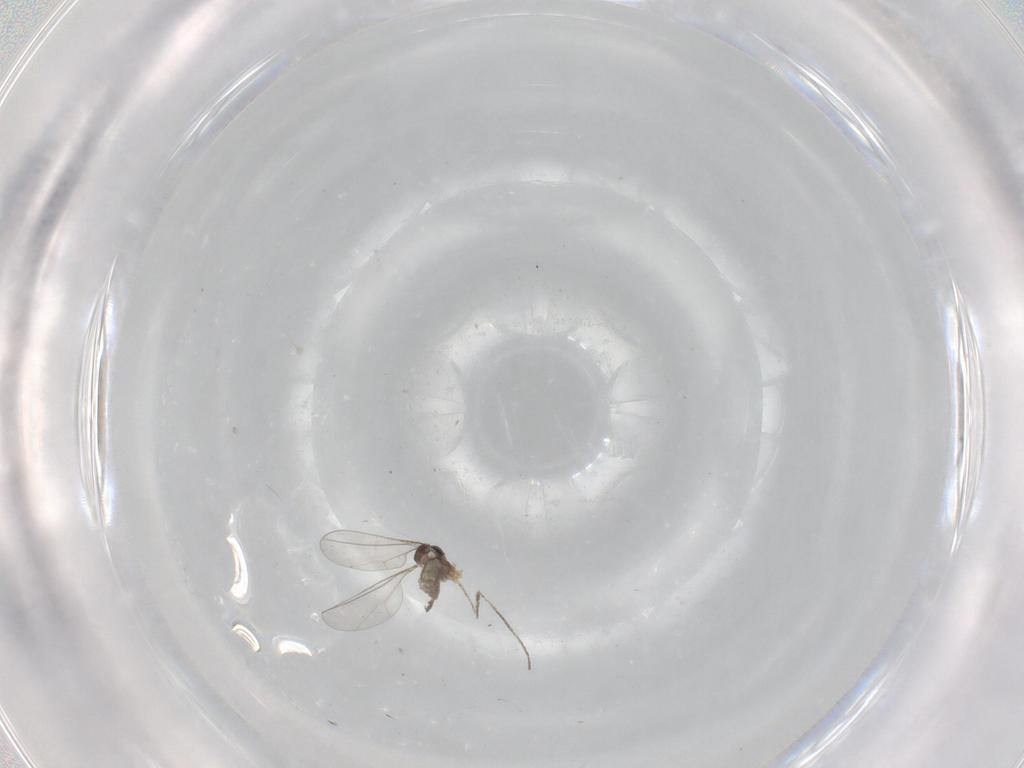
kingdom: Animalia
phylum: Arthropoda
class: Insecta
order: Diptera
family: Cecidomyiidae
